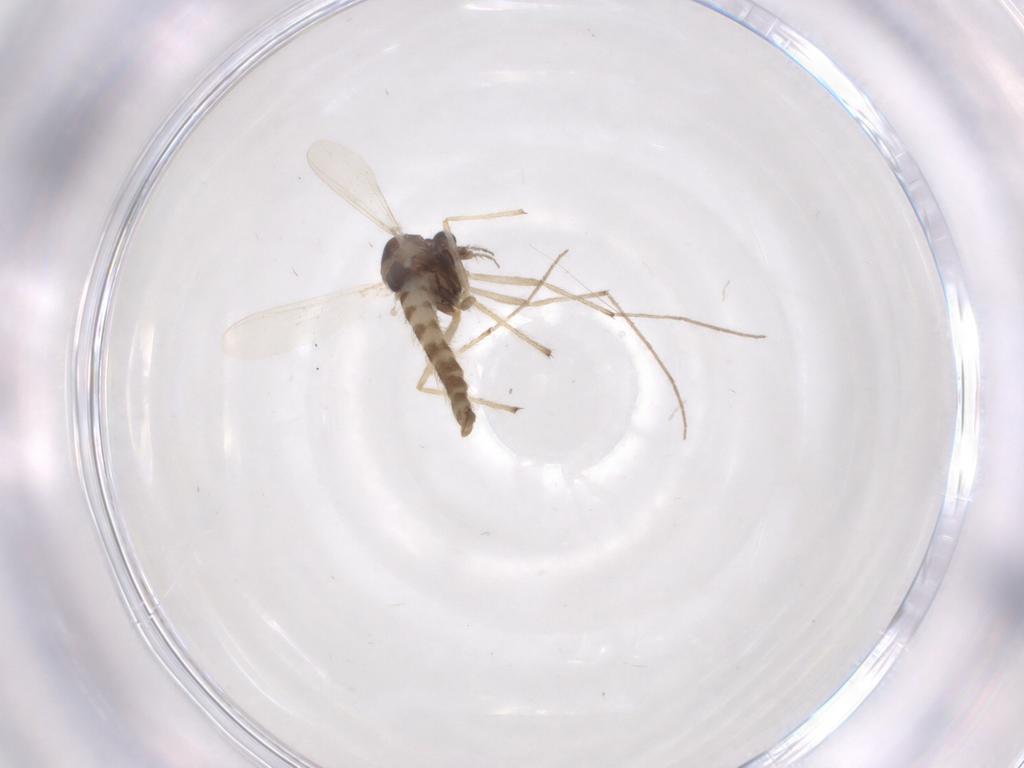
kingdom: Animalia
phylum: Arthropoda
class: Insecta
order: Diptera
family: Chironomidae
